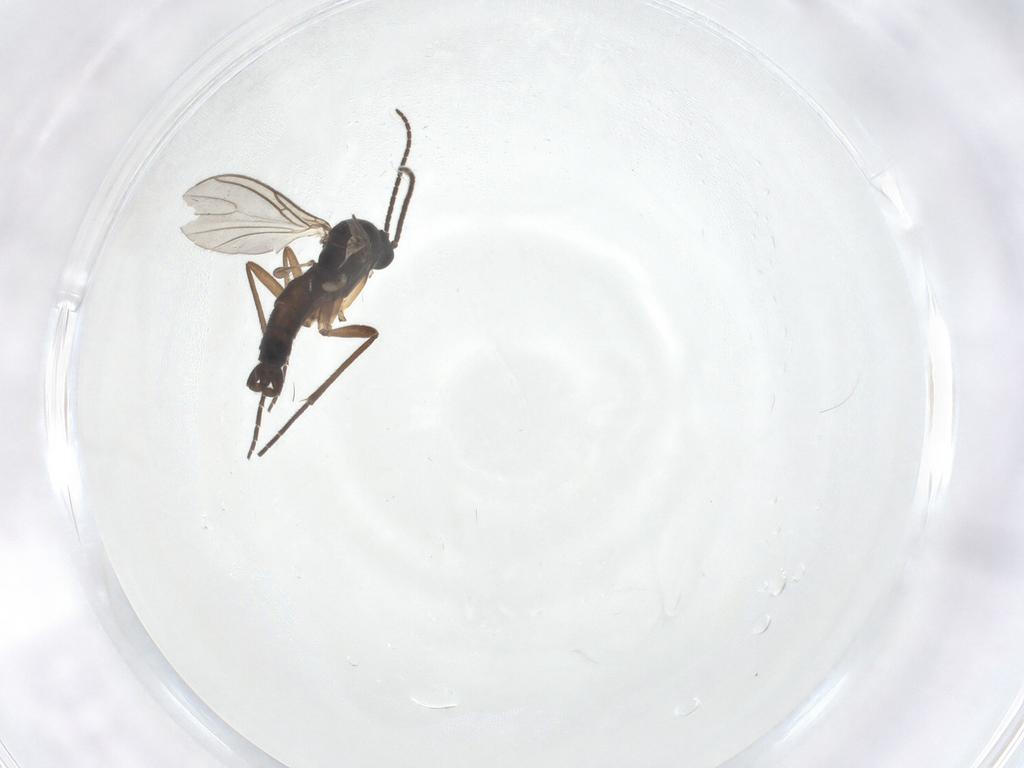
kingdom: Animalia
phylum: Arthropoda
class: Insecta
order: Diptera
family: Sciaridae
